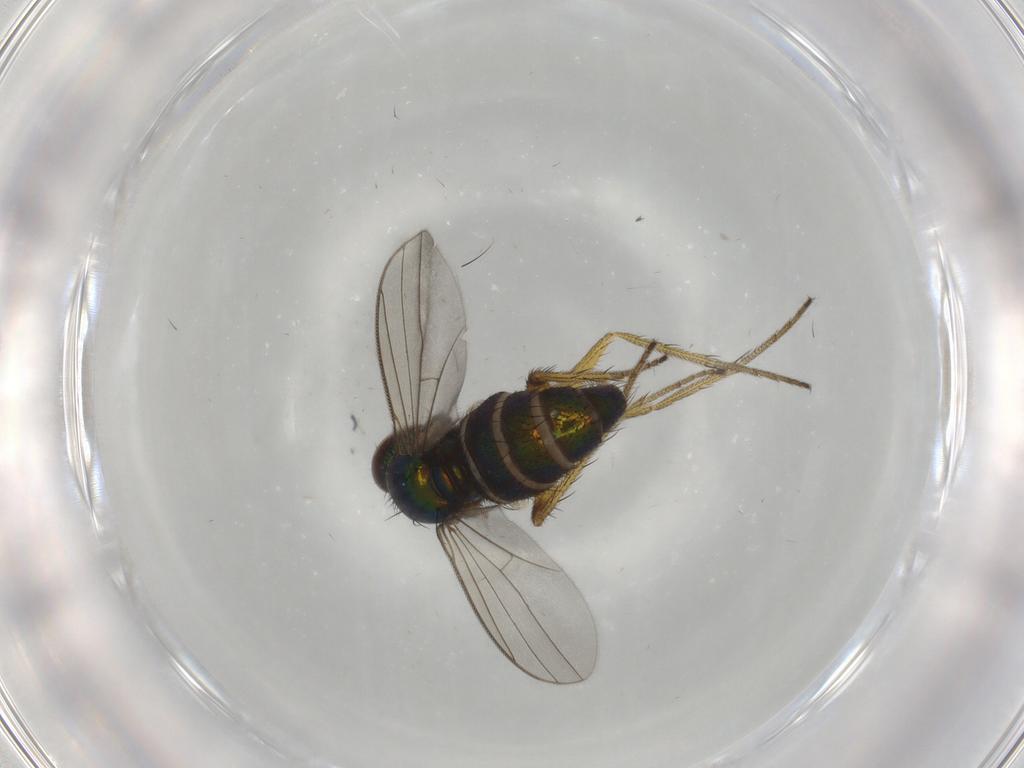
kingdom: Animalia
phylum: Arthropoda
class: Insecta
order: Diptera
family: Dolichopodidae
